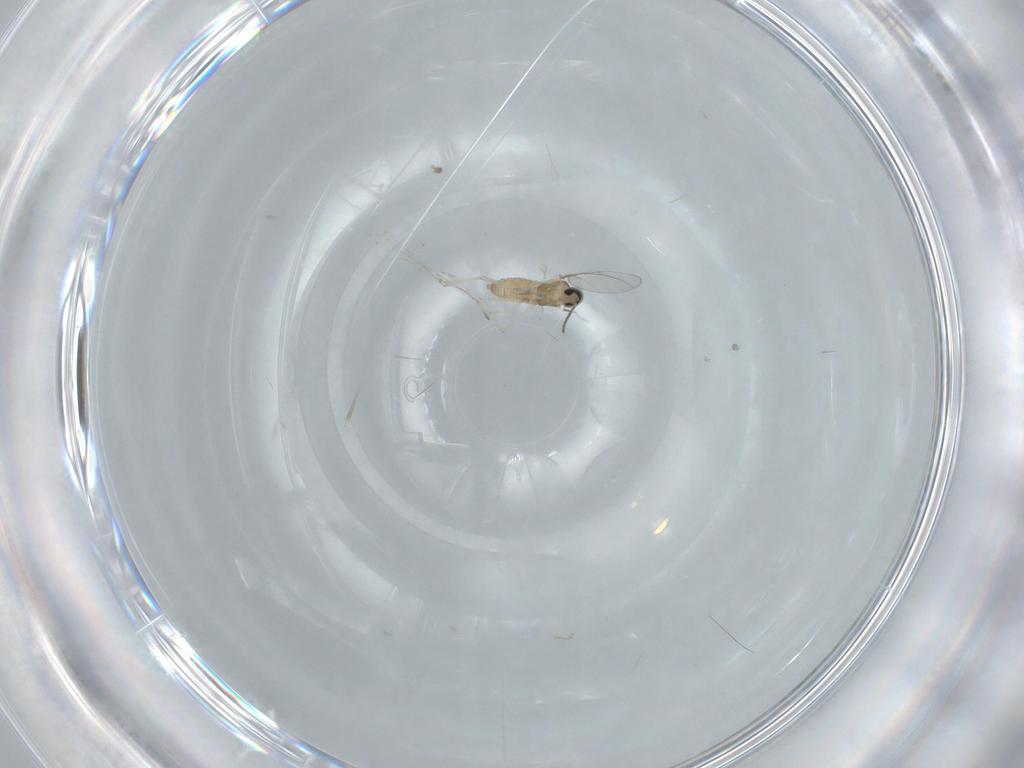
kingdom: Animalia
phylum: Arthropoda
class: Insecta
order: Diptera
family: Cecidomyiidae
